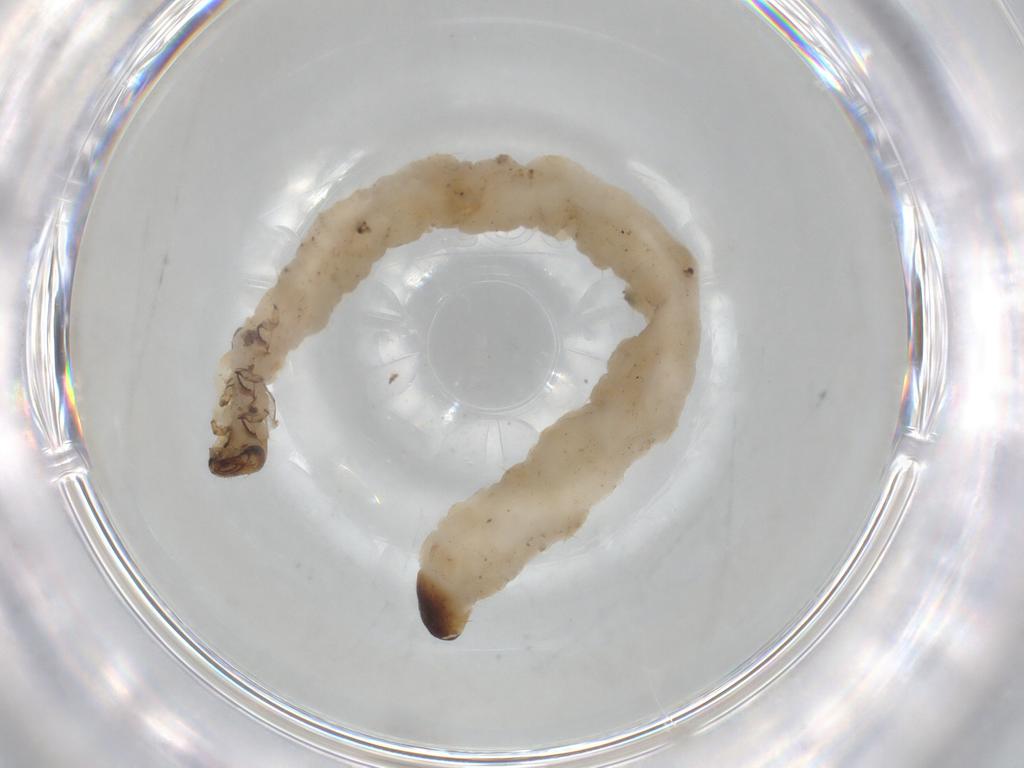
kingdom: Animalia
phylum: Arthropoda
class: Insecta
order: Coleoptera
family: Chrysomelidae
